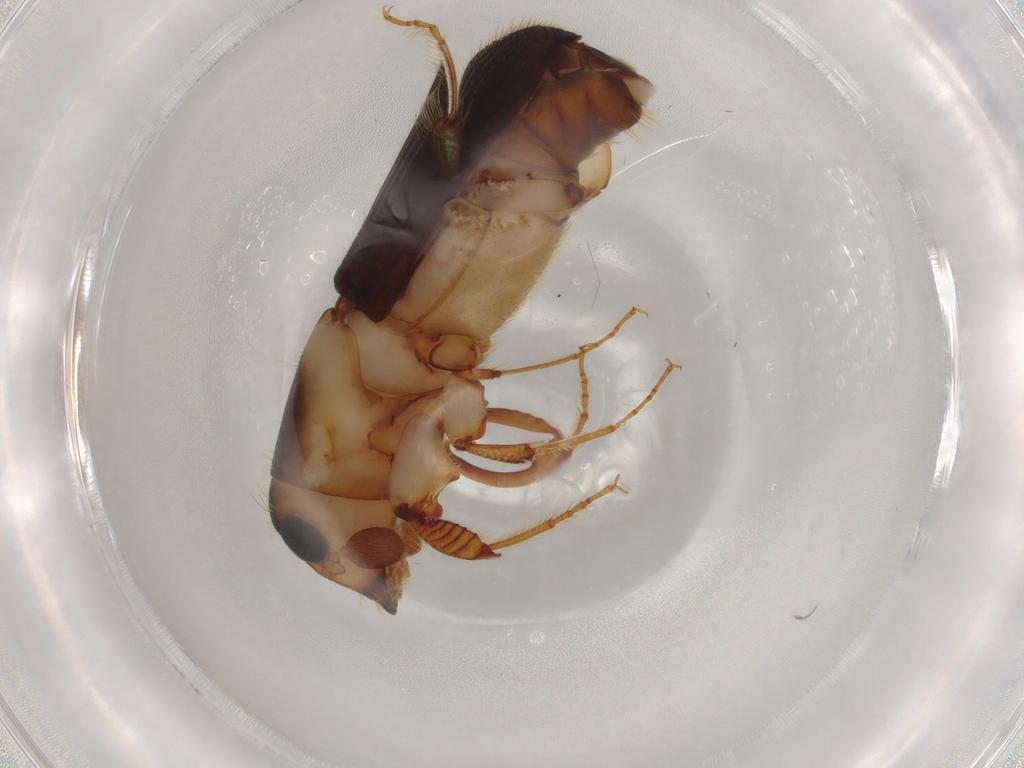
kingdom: Animalia
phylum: Arthropoda
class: Insecta
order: Coleoptera
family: Curculionidae
